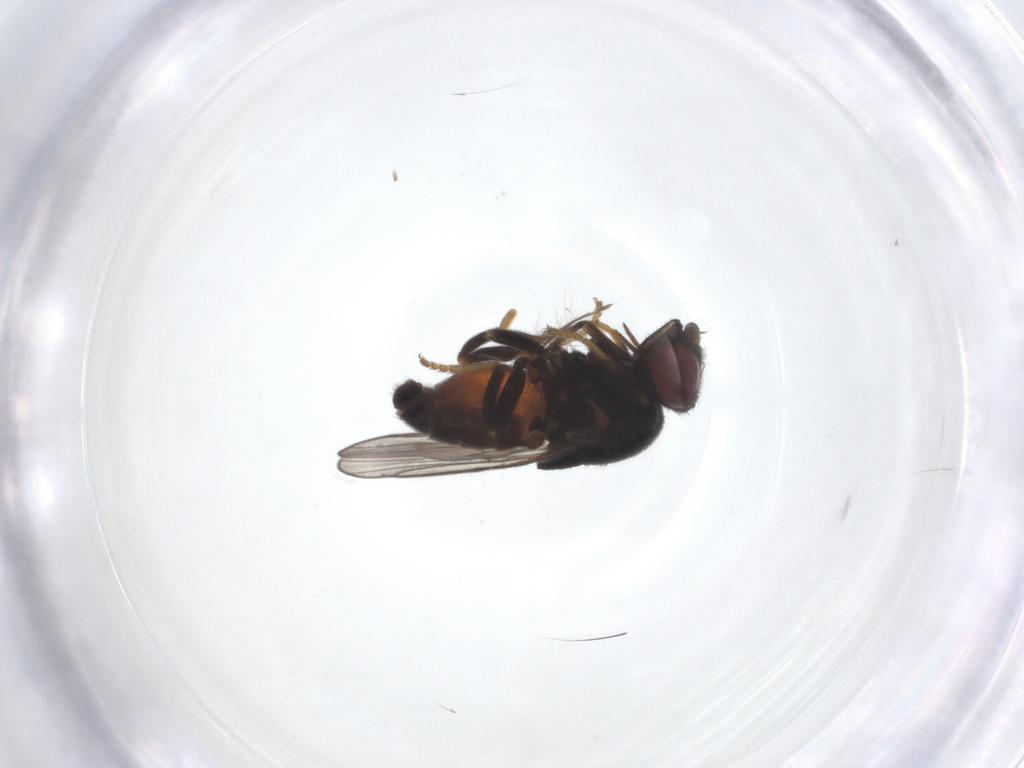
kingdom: Animalia
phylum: Arthropoda
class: Insecta
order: Diptera
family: Chloropidae
